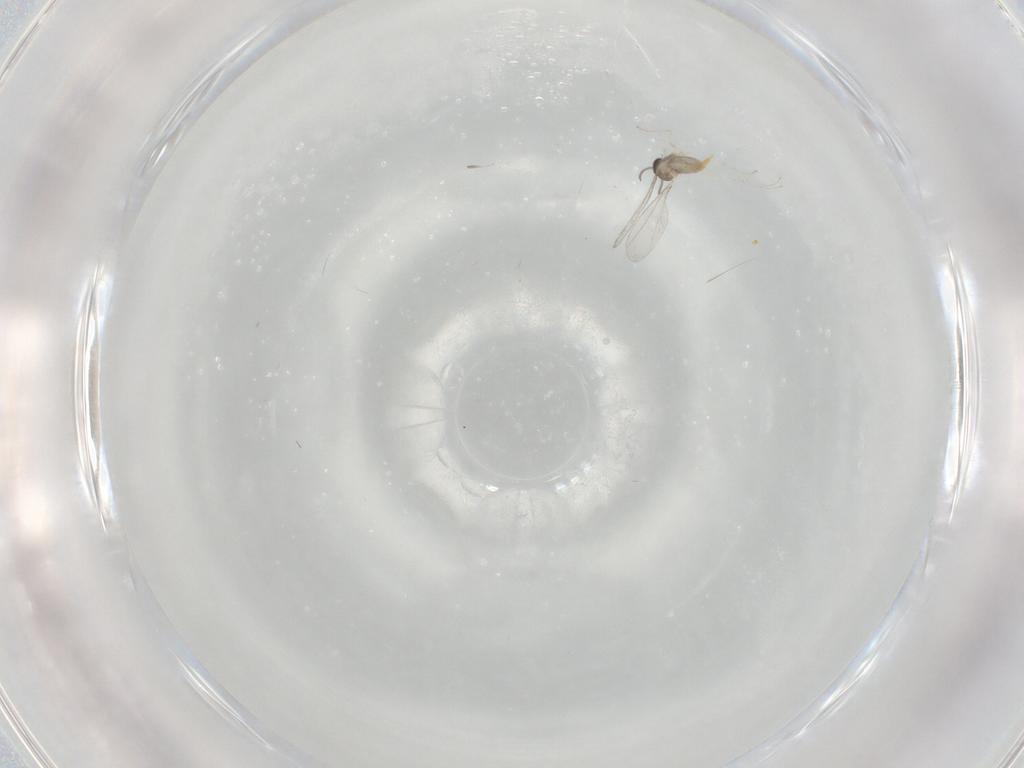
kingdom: Animalia
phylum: Arthropoda
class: Insecta
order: Diptera
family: Cecidomyiidae
